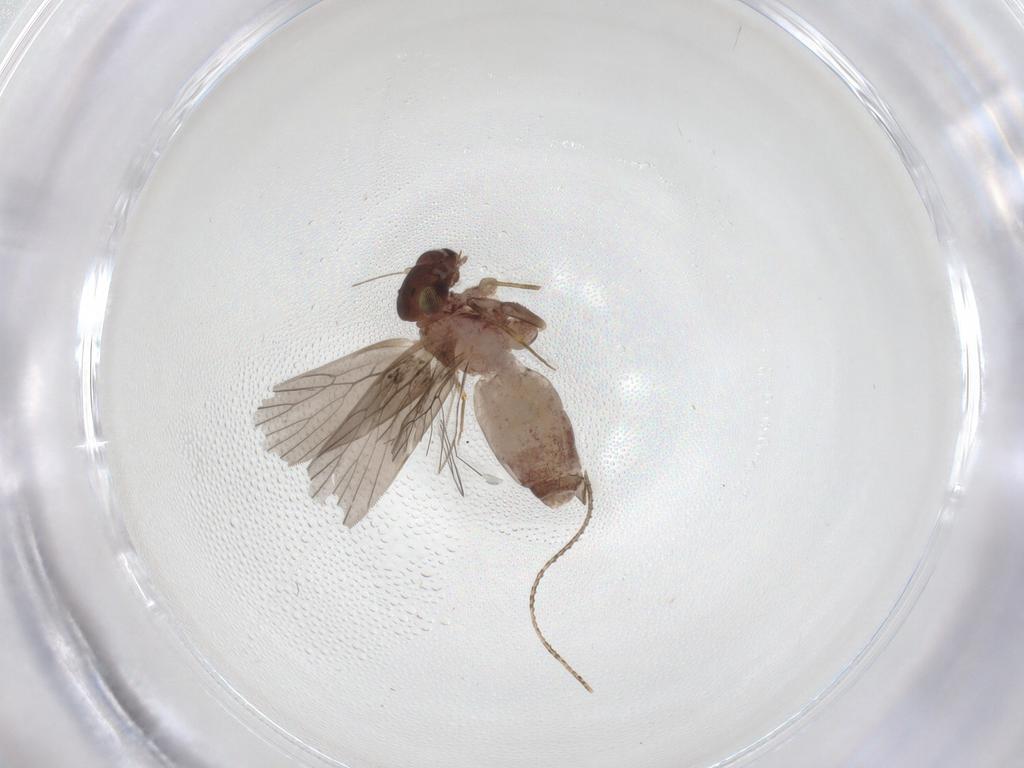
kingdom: Animalia
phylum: Arthropoda
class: Insecta
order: Psocodea
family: Lepidopsocidae
